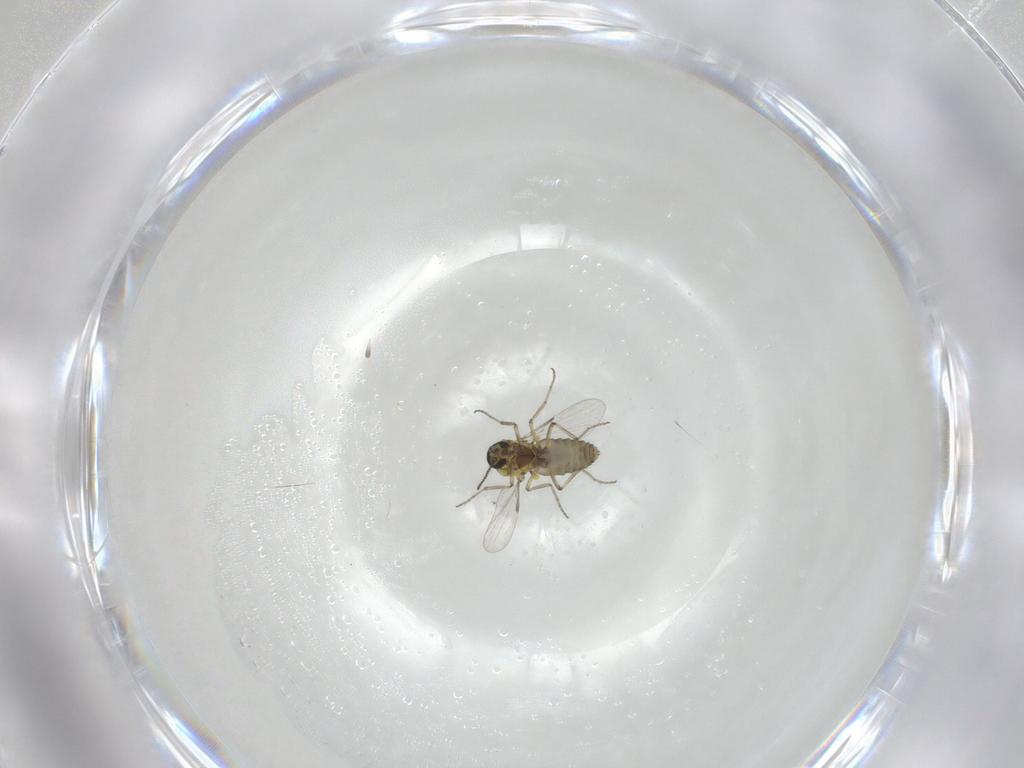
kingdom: Animalia
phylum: Arthropoda
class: Insecta
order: Diptera
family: Ceratopogonidae
